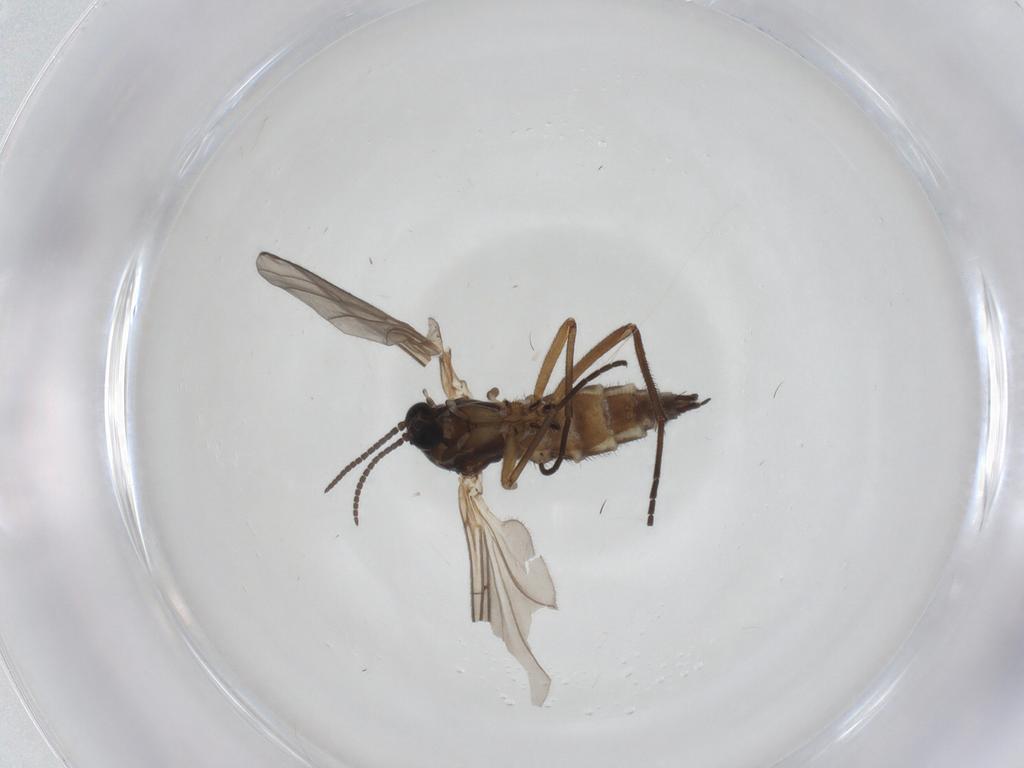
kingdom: Animalia
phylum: Arthropoda
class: Insecta
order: Diptera
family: Sciaridae
